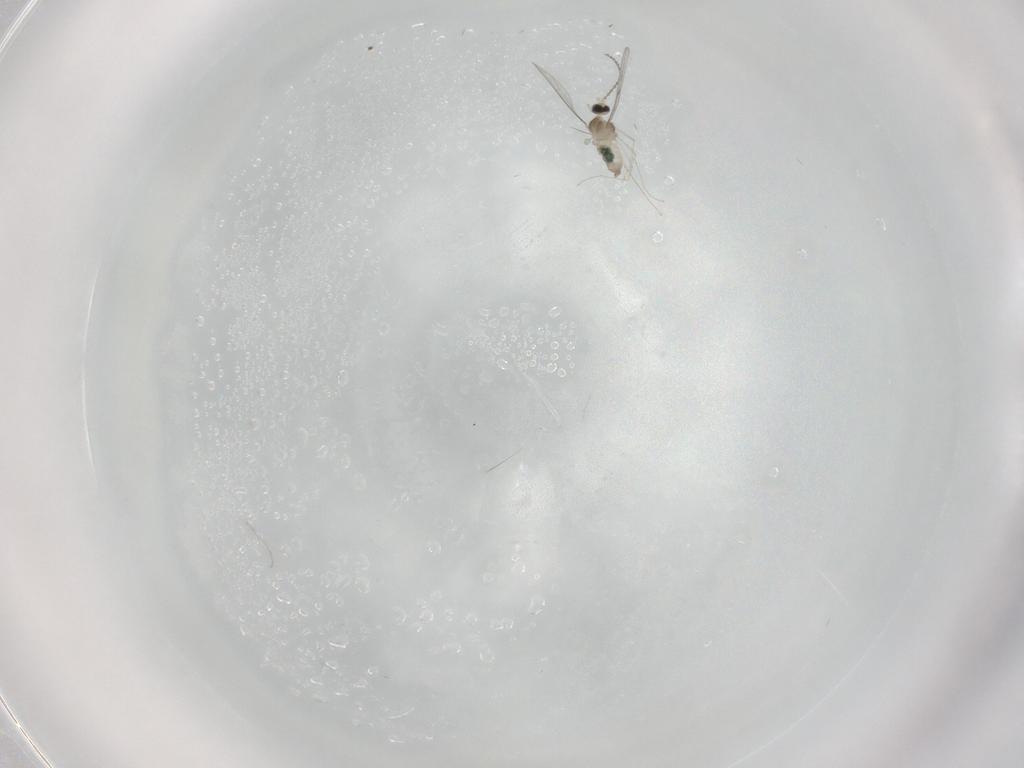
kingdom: Animalia
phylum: Arthropoda
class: Insecta
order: Diptera
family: Cecidomyiidae
